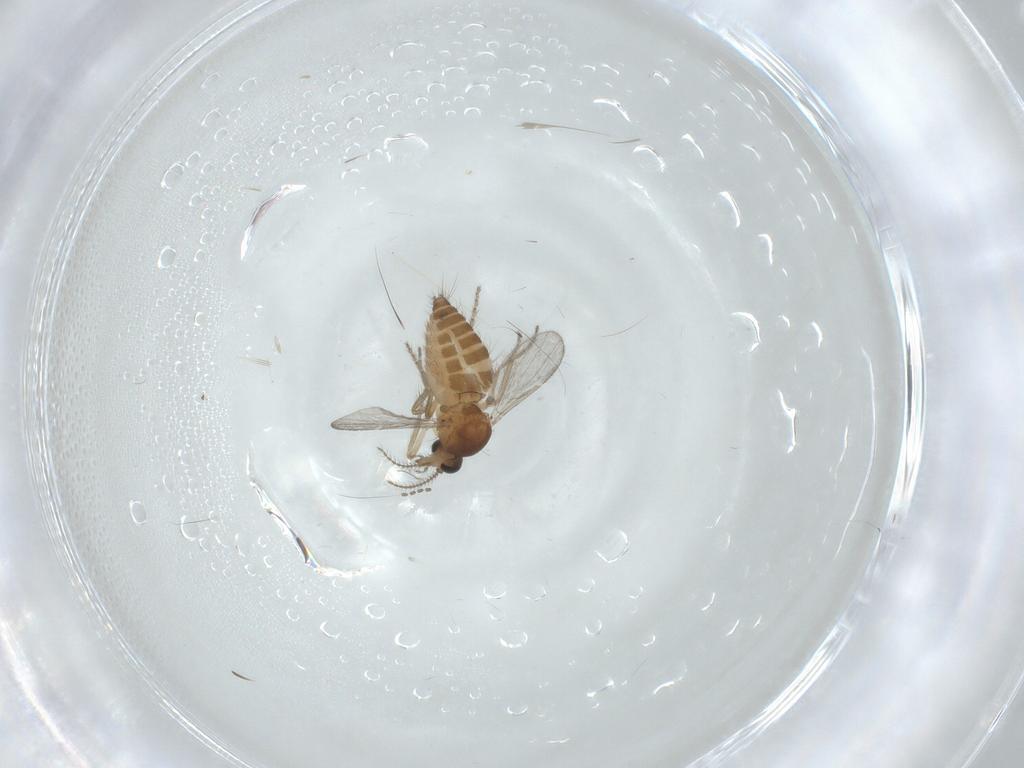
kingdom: Animalia
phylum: Arthropoda
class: Insecta
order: Diptera
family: Ceratopogonidae
